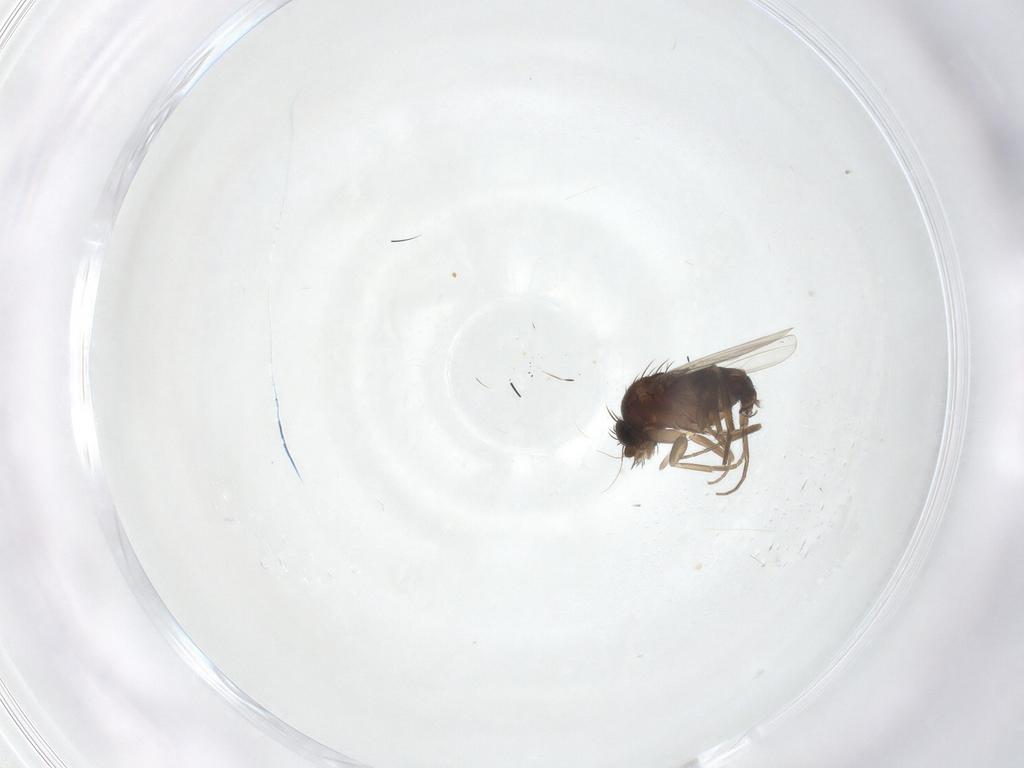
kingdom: Animalia
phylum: Arthropoda
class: Insecta
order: Diptera
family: Phoridae
